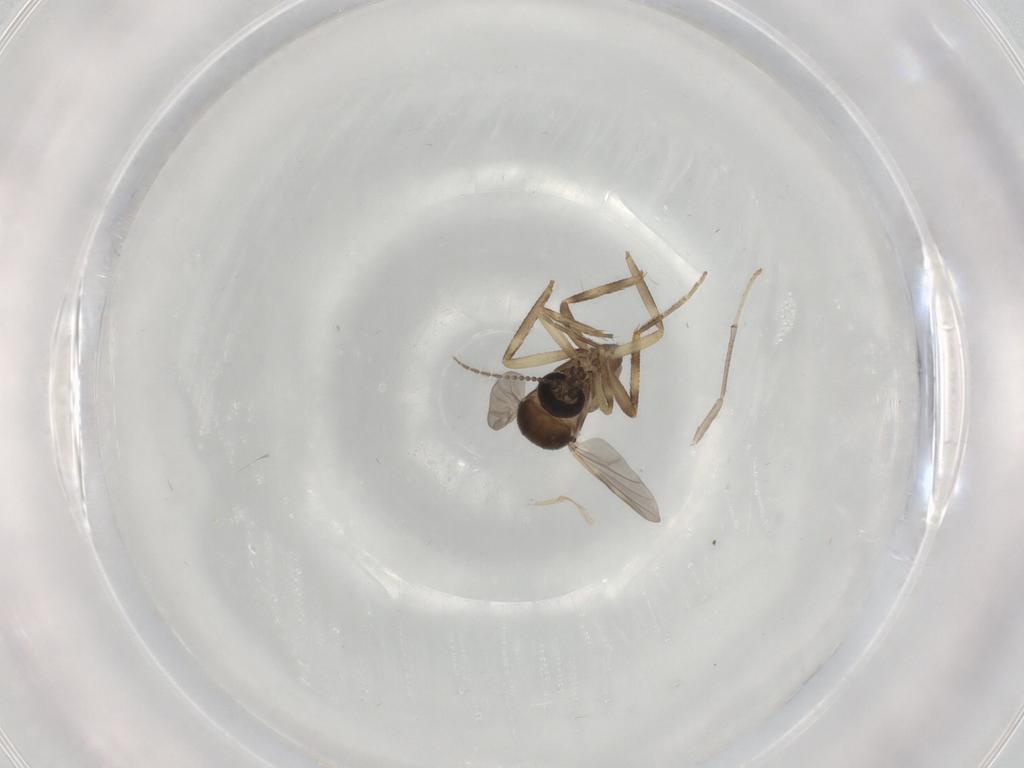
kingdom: Animalia
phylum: Arthropoda
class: Insecta
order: Diptera
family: Ceratopogonidae
